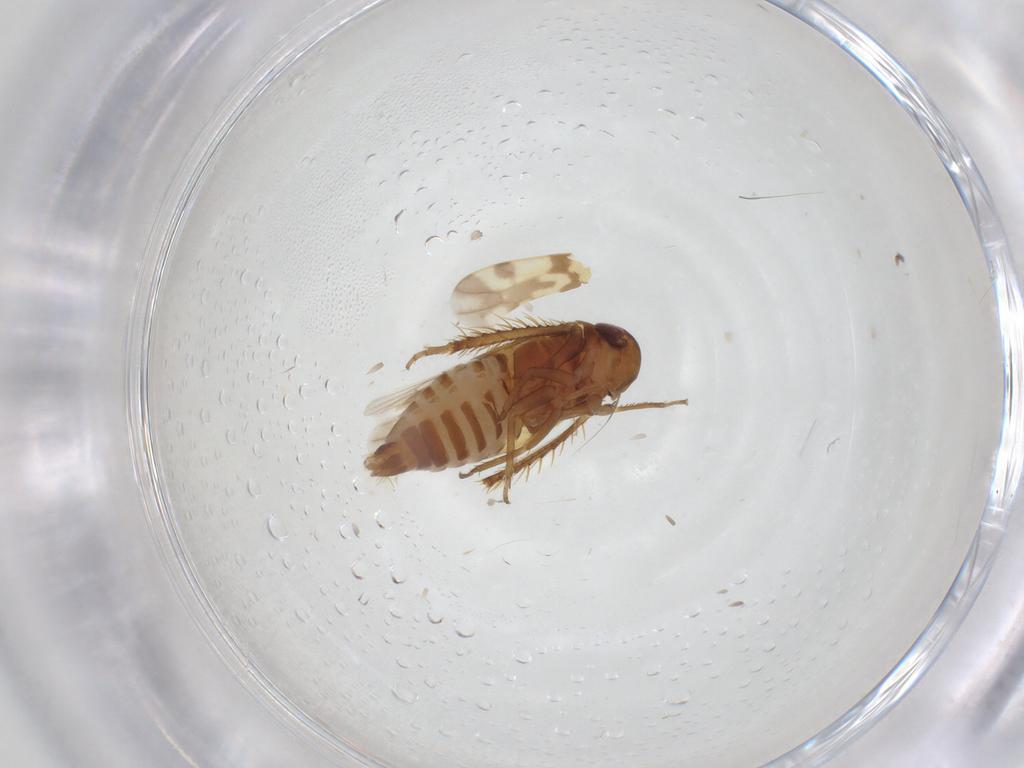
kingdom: Animalia
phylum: Arthropoda
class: Insecta
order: Hemiptera
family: Cicadellidae
